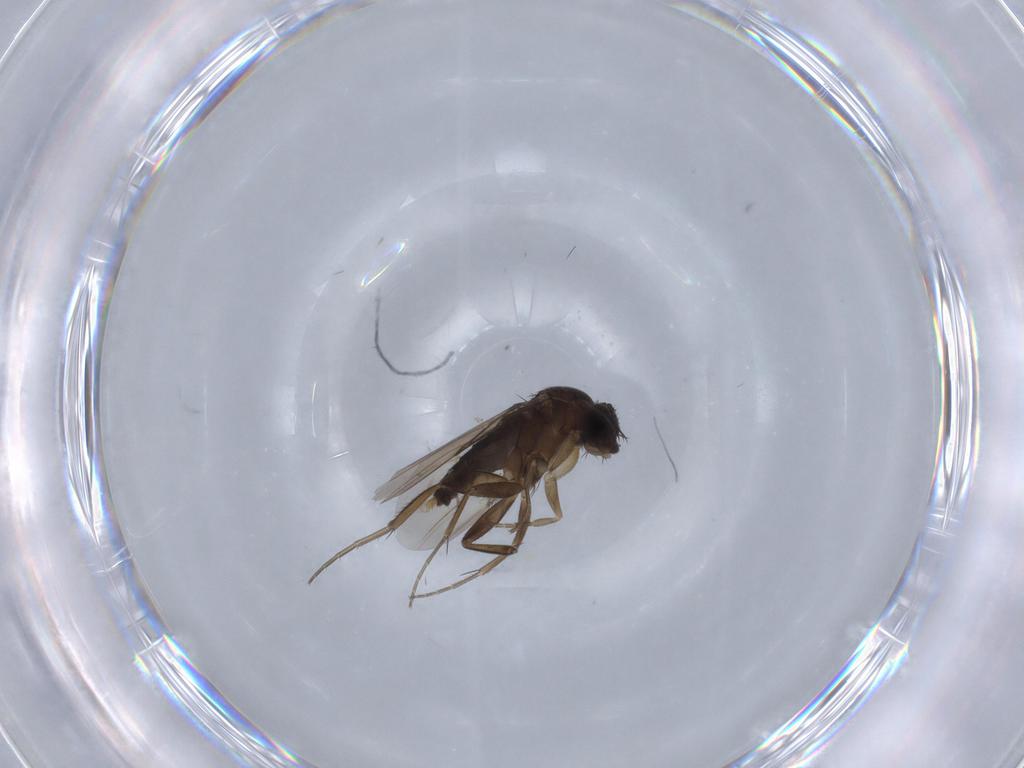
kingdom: Animalia
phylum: Arthropoda
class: Insecta
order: Diptera
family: Phoridae
